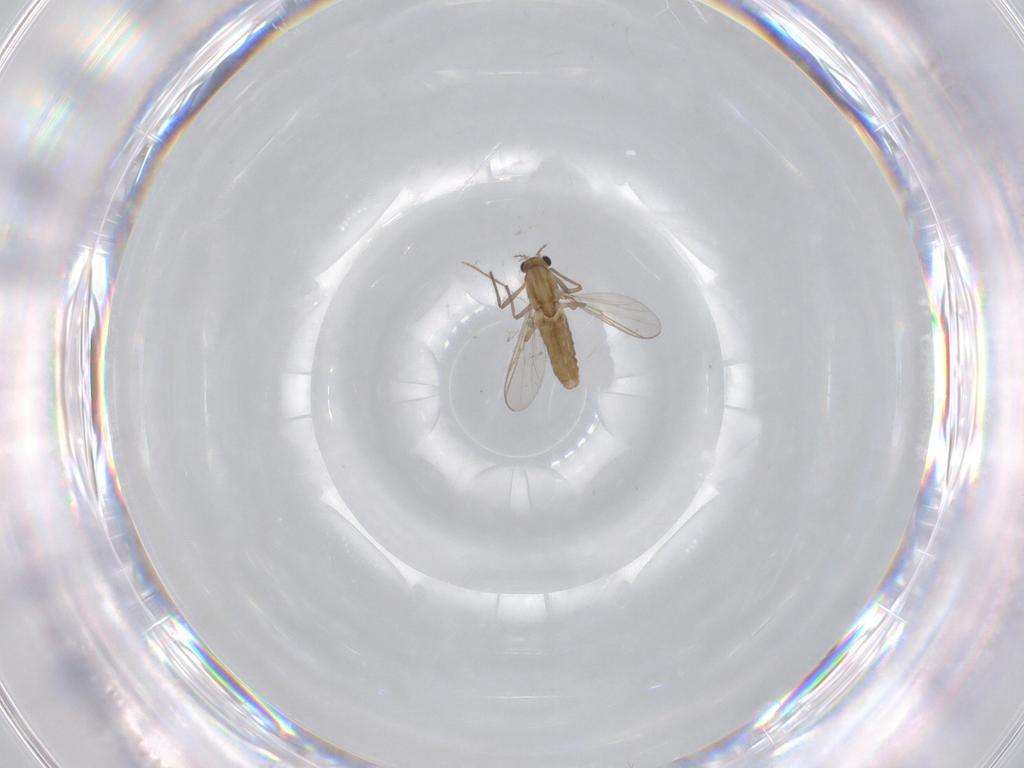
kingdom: Animalia
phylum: Arthropoda
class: Insecta
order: Diptera
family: Chironomidae
